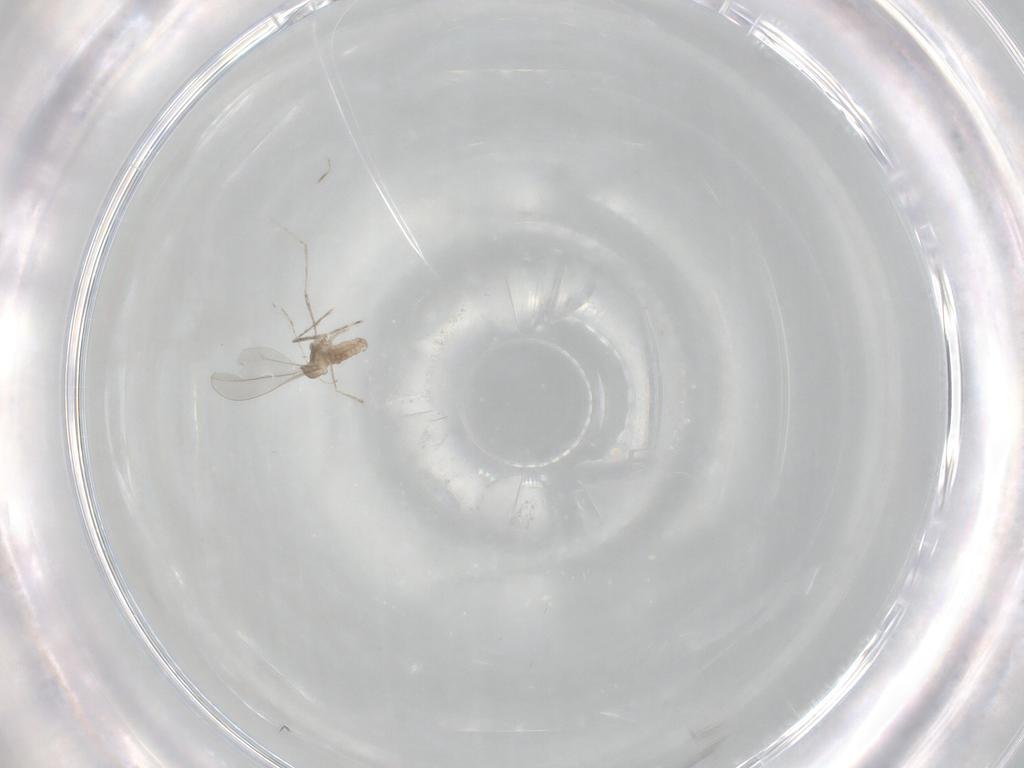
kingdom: Animalia
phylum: Arthropoda
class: Insecta
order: Diptera
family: Cecidomyiidae
